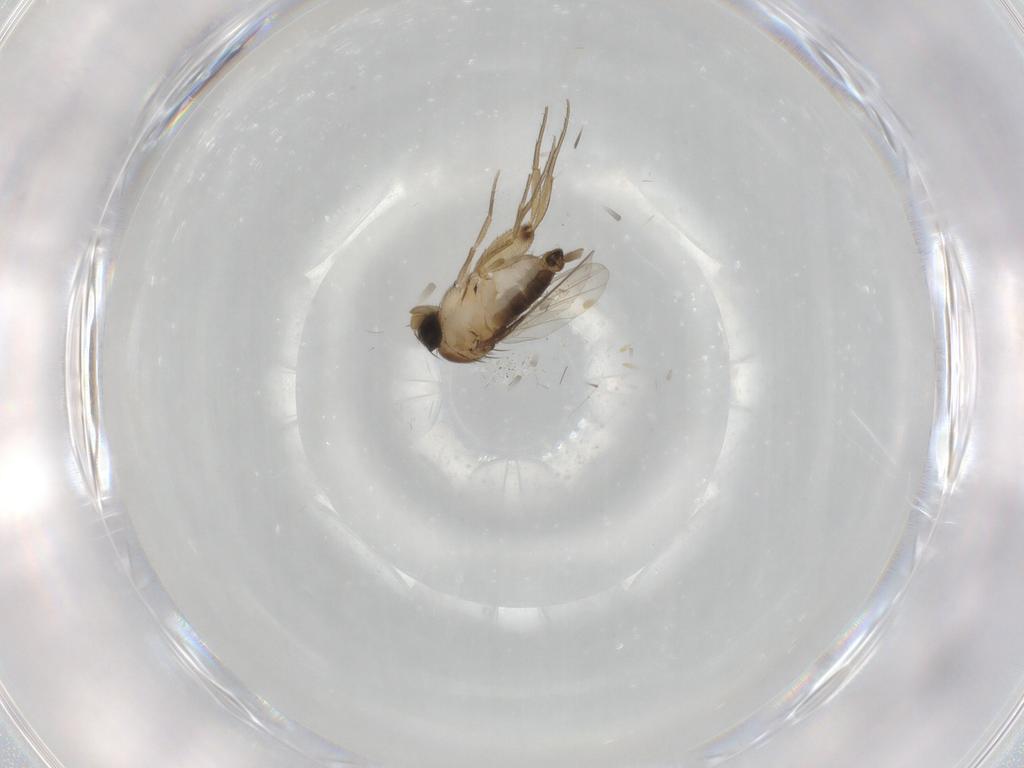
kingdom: Animalia
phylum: Arthropoda
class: Insecta
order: Diptera
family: Phoridae
